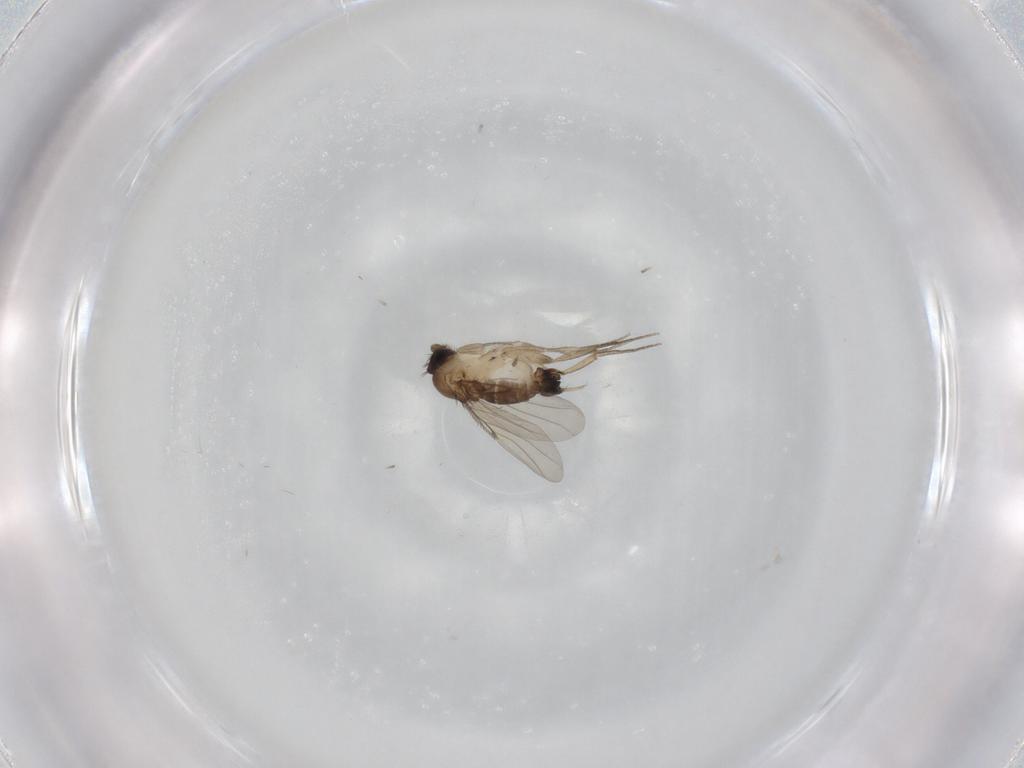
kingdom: Animalia
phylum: Arthropoda
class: Insecta
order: Diptera
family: Phoridae
